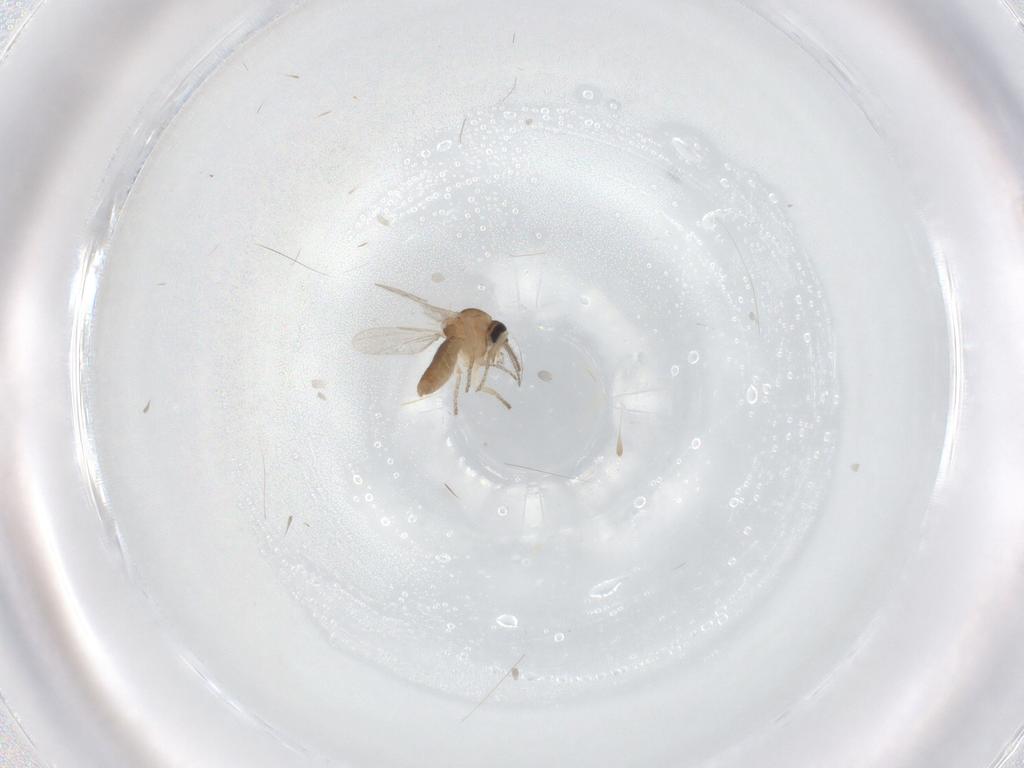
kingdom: Animalia
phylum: Arthropoda
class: Insecta
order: Diptera
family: Ceratopogonidae
